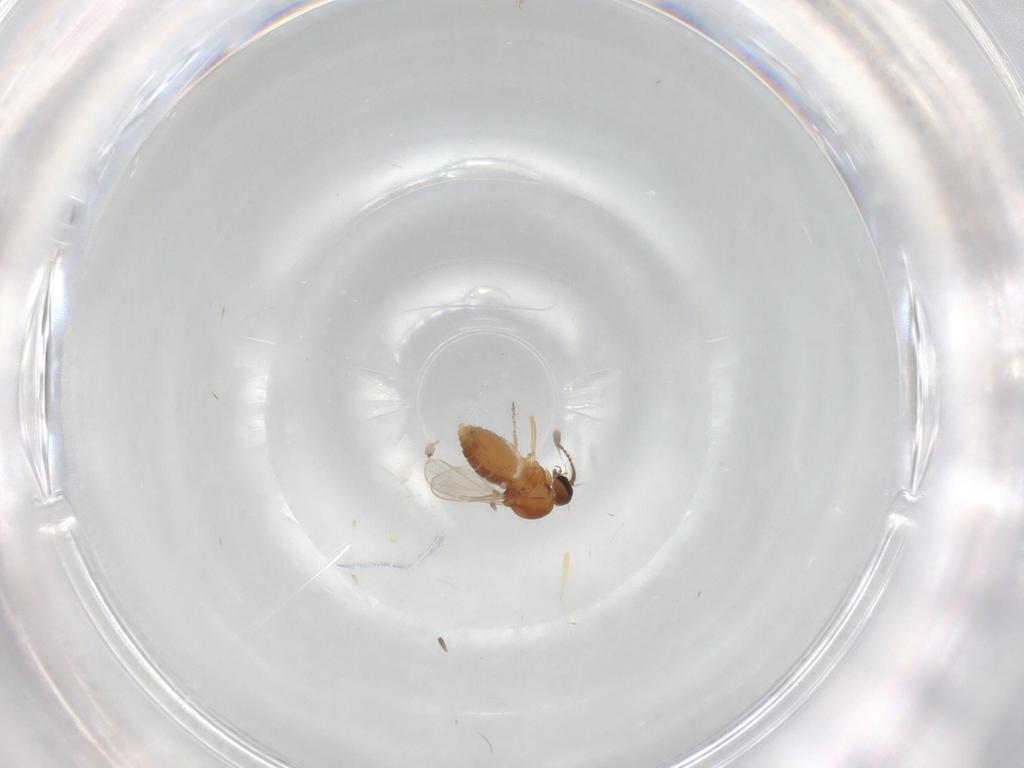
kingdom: Animalia
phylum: Arthropoda
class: Insecta
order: Diptera
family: Ceratopogonidae
